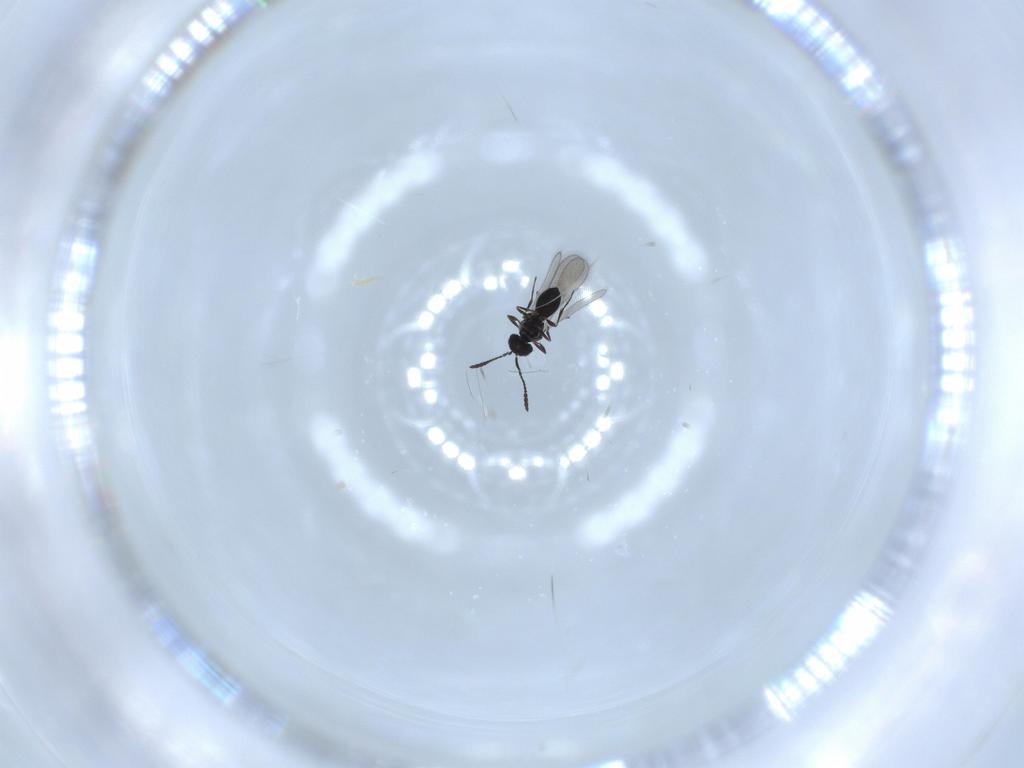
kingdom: Animalia
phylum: Arthropoda
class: Insecta
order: Hymenoptera
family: Scelionidae
